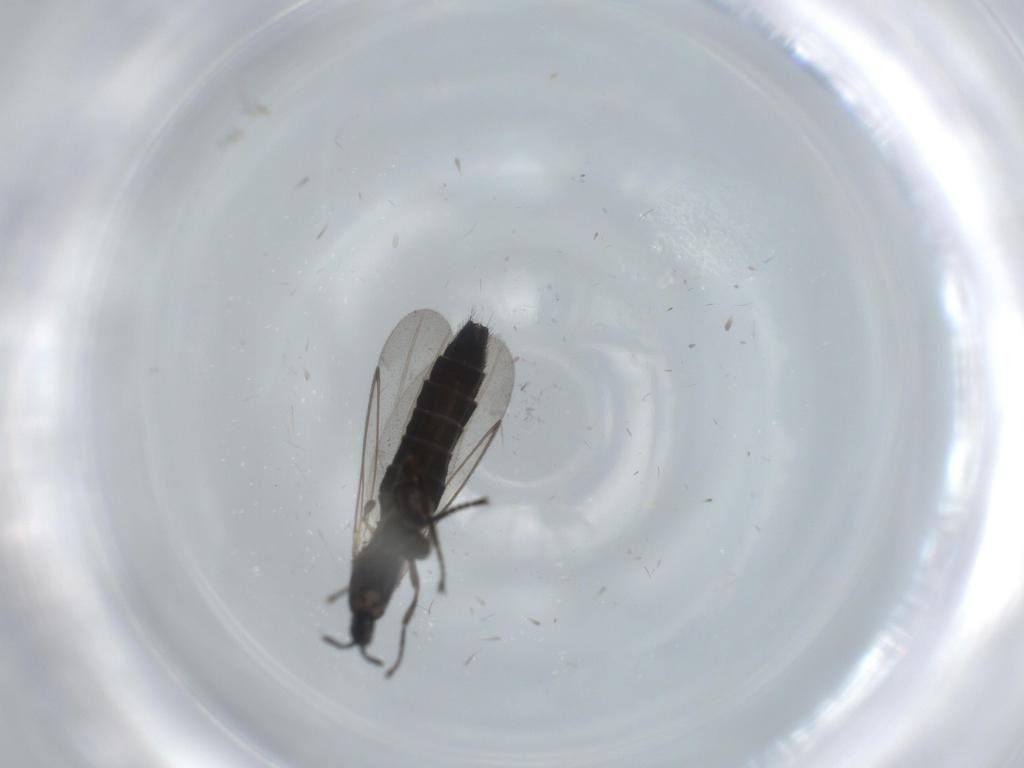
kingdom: Animalia
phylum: Arthropoda
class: Insecta
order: Diptera
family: Scatopsidae
